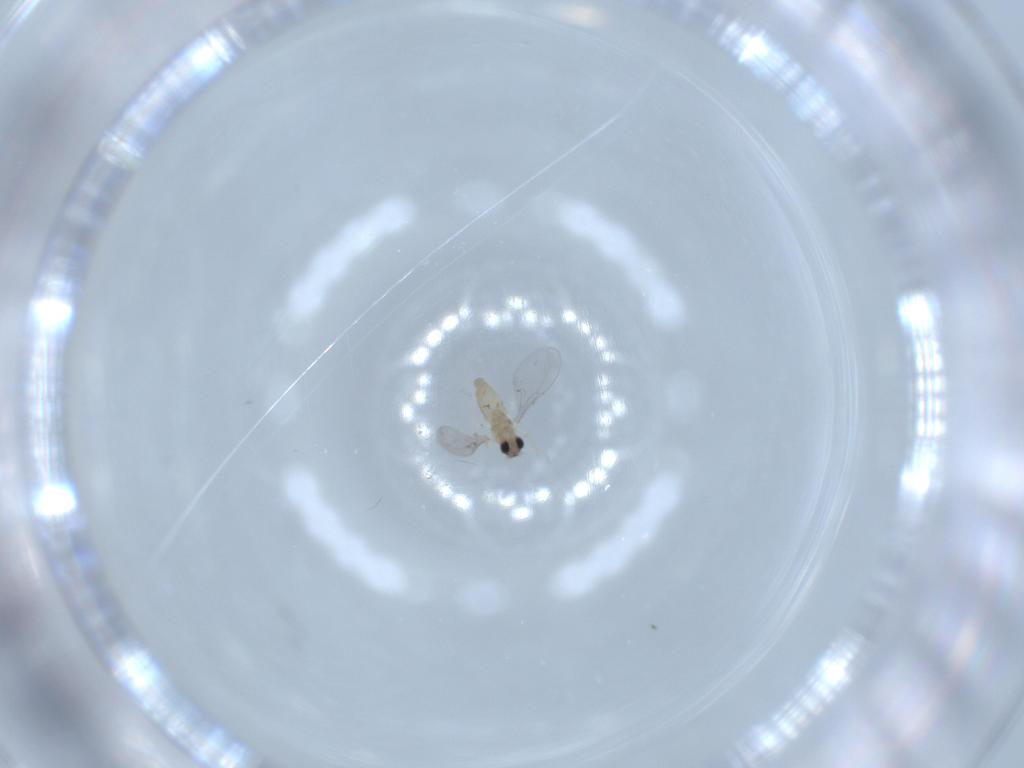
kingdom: Animalia
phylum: Arthropoda
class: Insecta
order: Diptera
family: Cecidomyiidae
